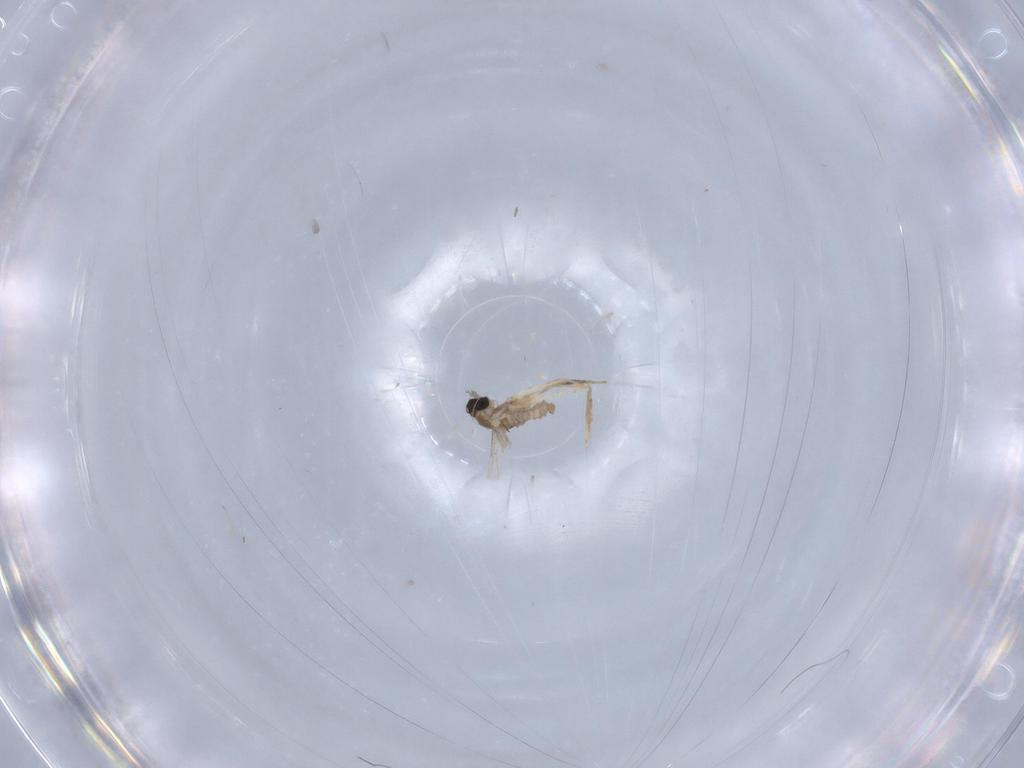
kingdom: Animalia
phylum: Arthropoda
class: Insecta
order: Diptera
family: Cecidomyiidae
